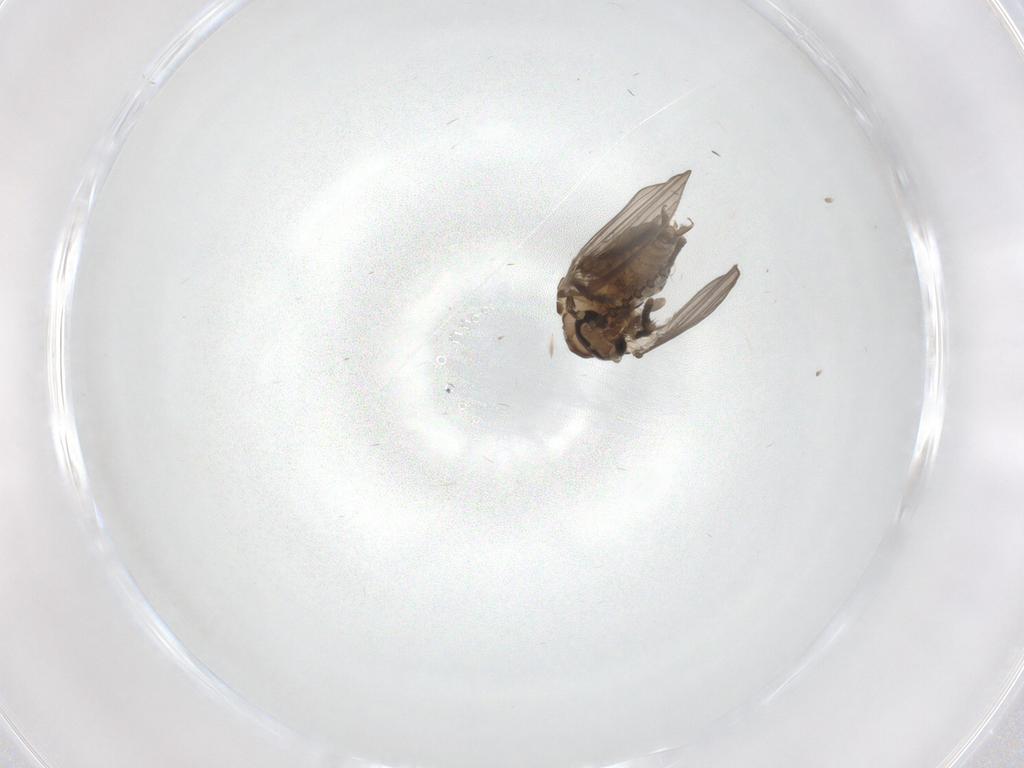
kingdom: Animalia
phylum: Arthropoda
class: Insecta
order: Diptera
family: Psychodidae
